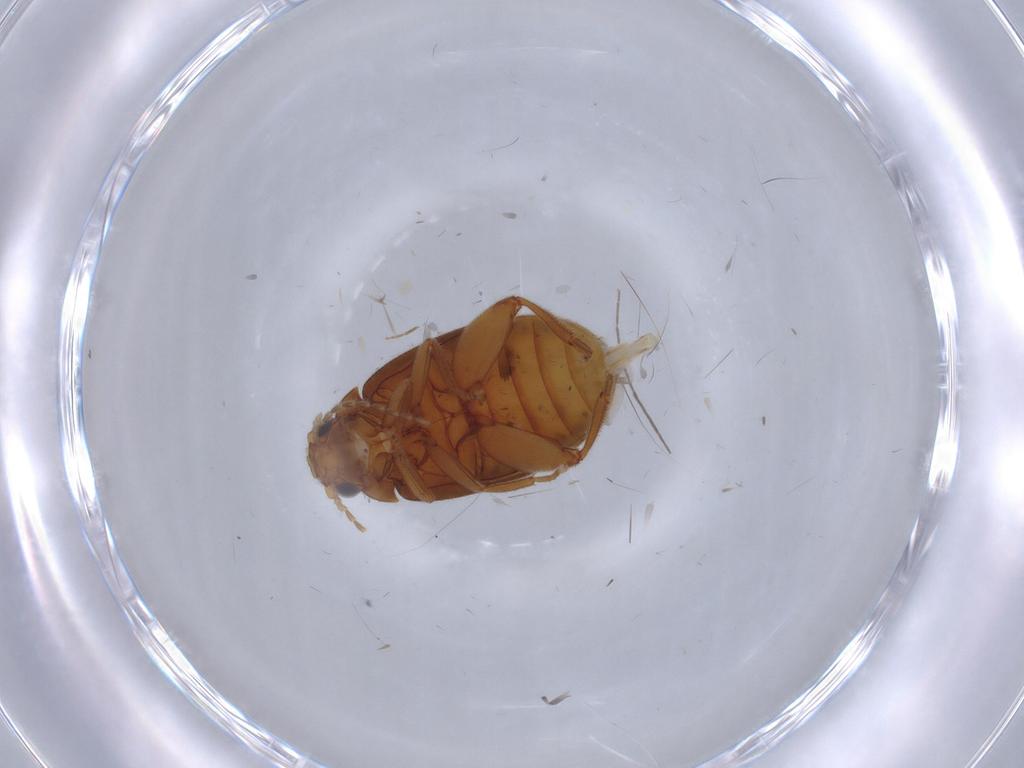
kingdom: Animalia
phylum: Arthropoda
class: Insecta
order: Coleoptera
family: Scirtidae
